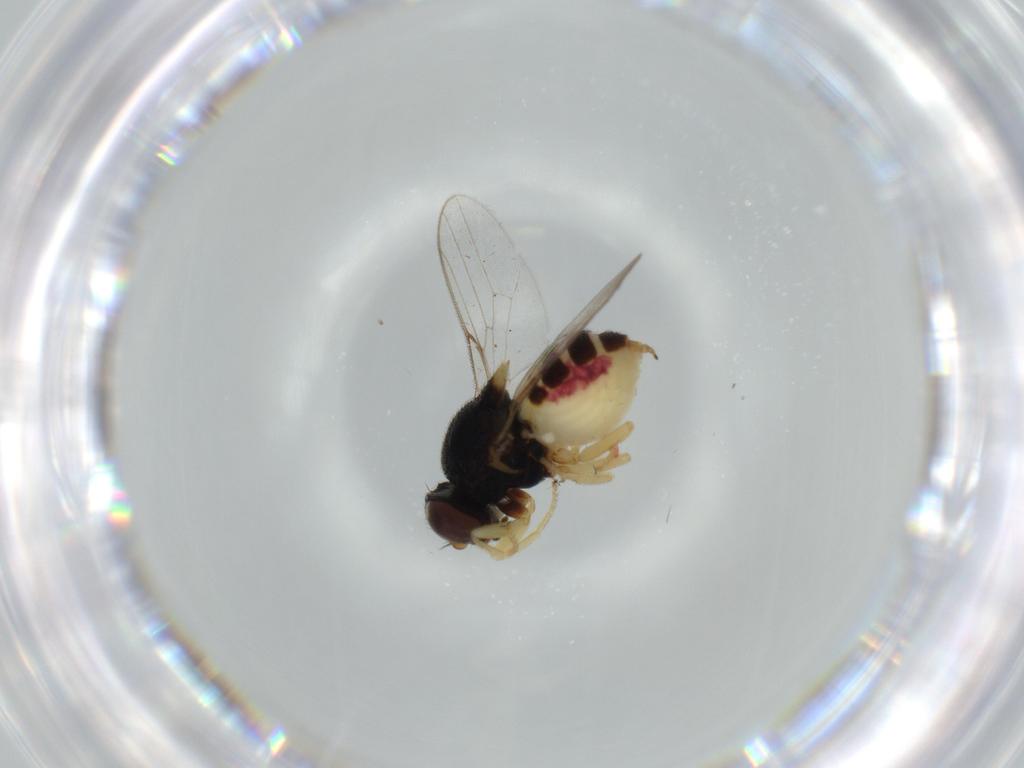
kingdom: Animalia
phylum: Arthropoda
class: Insecta
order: Diptera
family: Chloropidae
